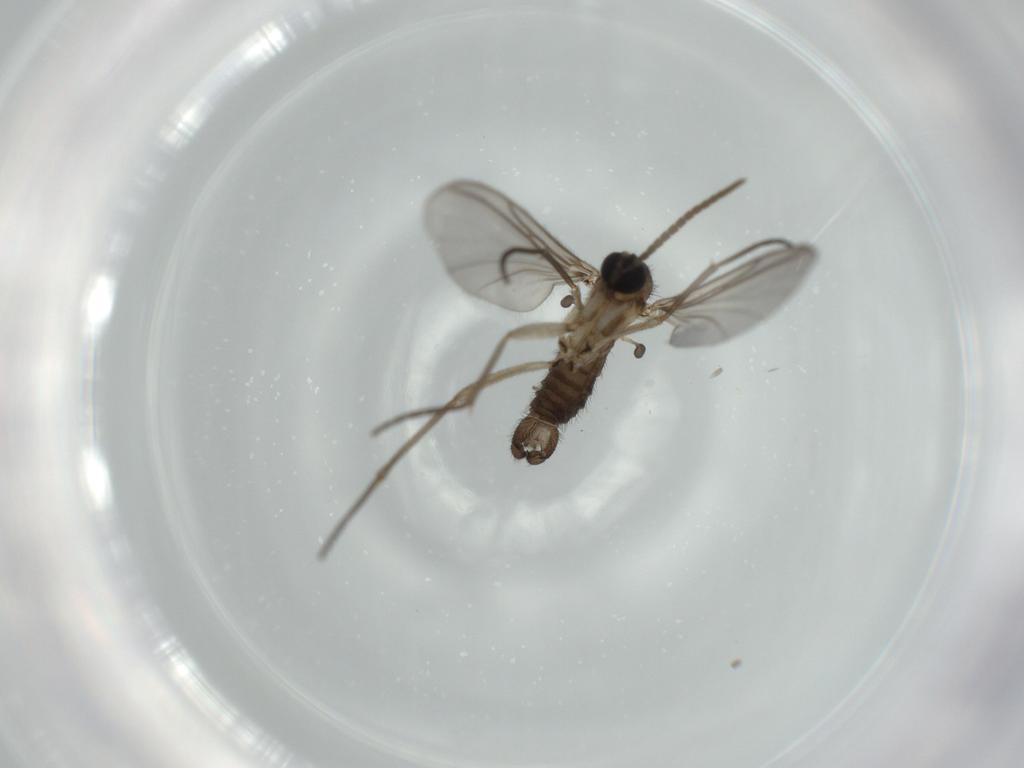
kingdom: Animalia
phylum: Arthropoda
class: Insecta
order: Diptera
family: Sciaridae
